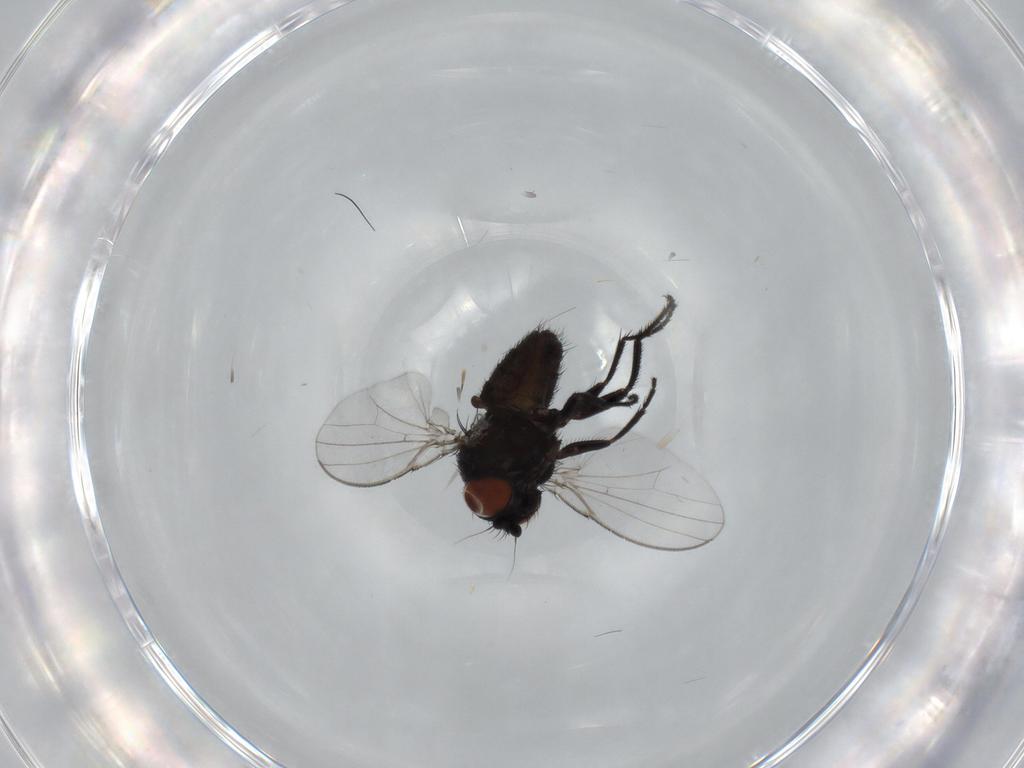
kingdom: Animalia
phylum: Arthropoda
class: Insecta
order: Diptera
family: Milichiidae
